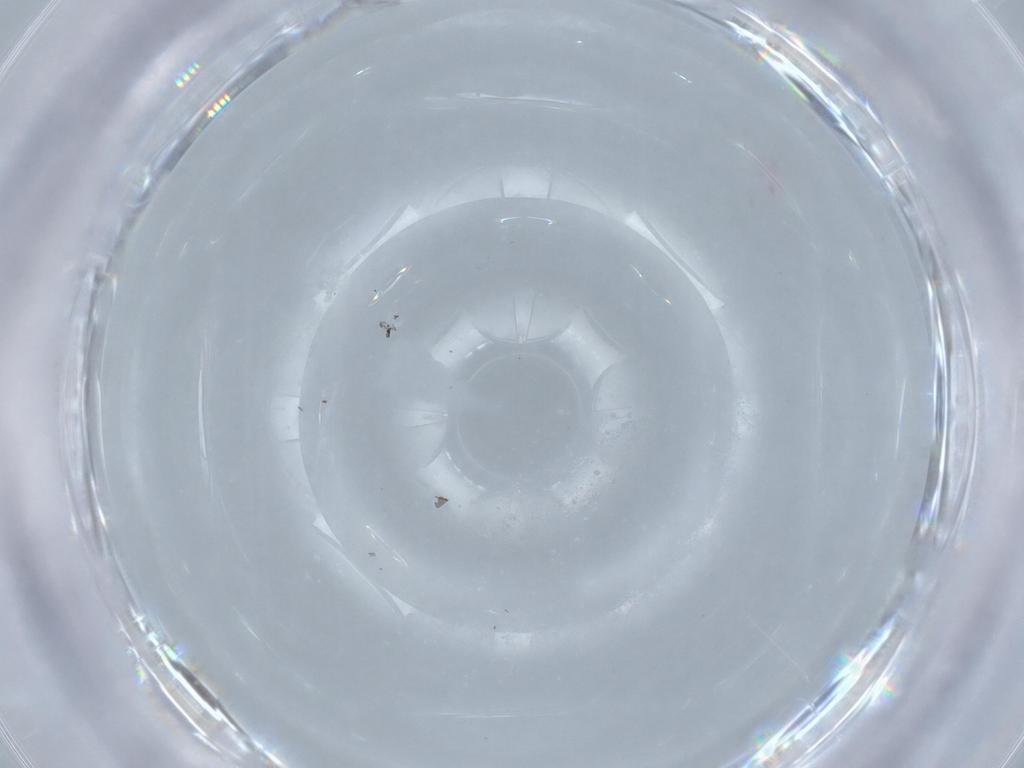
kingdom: Animalia
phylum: Arthropoda
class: Insecta
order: Psocodea
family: Lepidopsocidae
